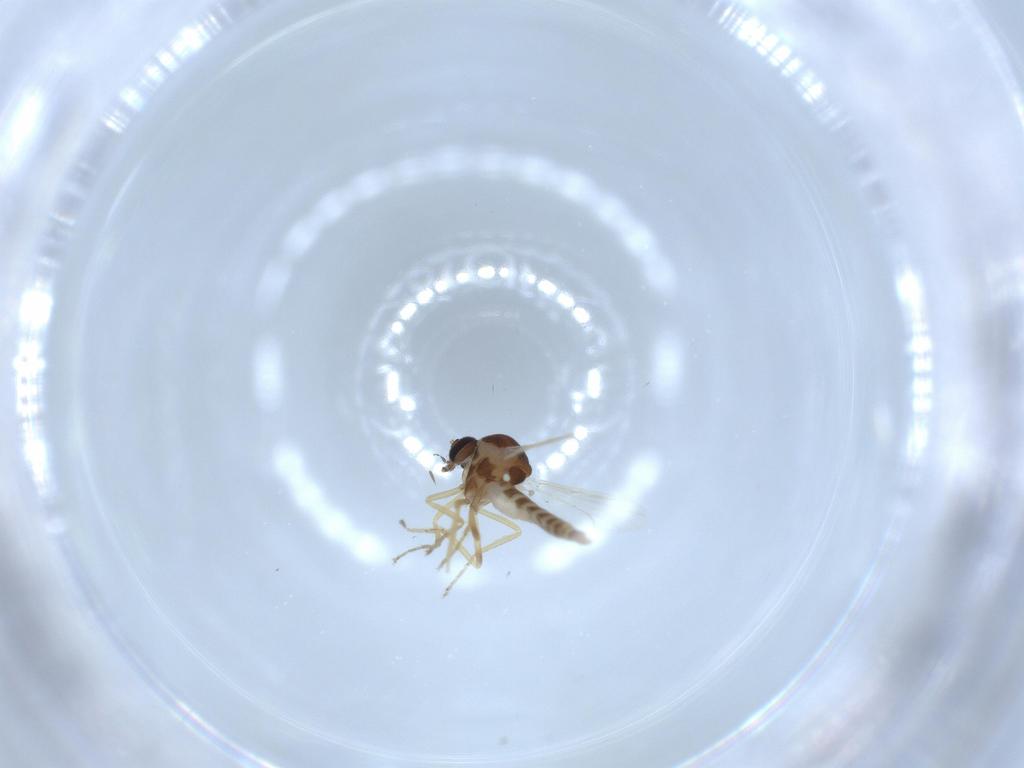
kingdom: Animalia
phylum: Arthropoda
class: Insecta
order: Diptera
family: Ceratopogonidae
